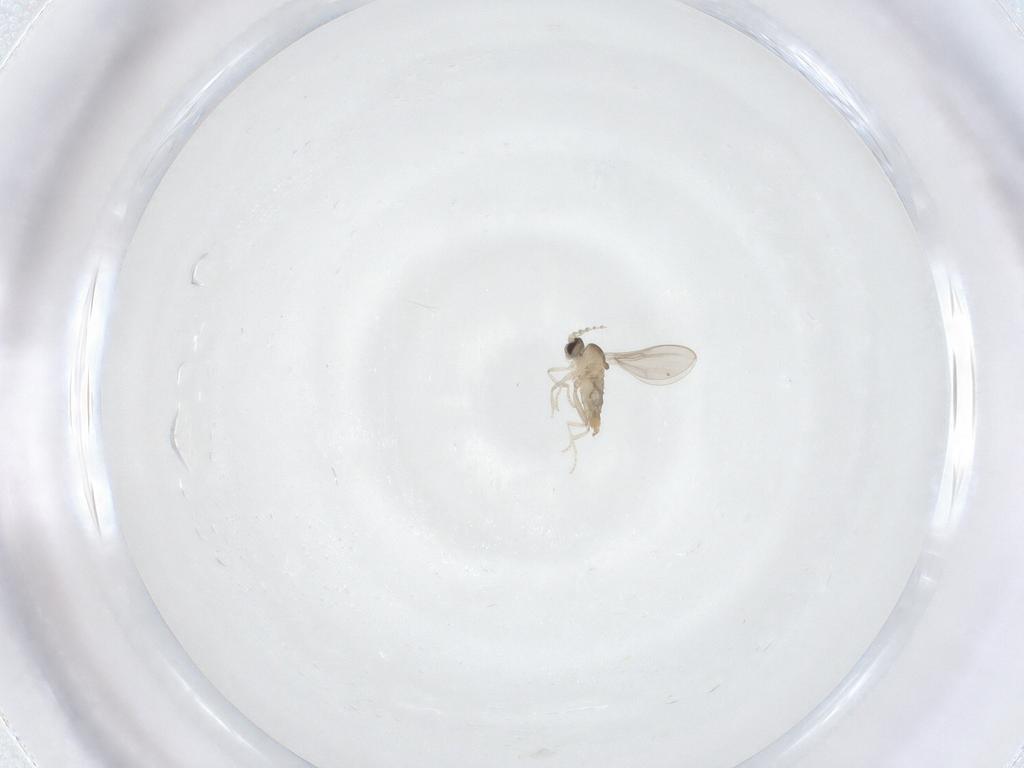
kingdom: Animalia
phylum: Arthropoda
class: Insecta
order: Diptera
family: Cecidomyiidae
